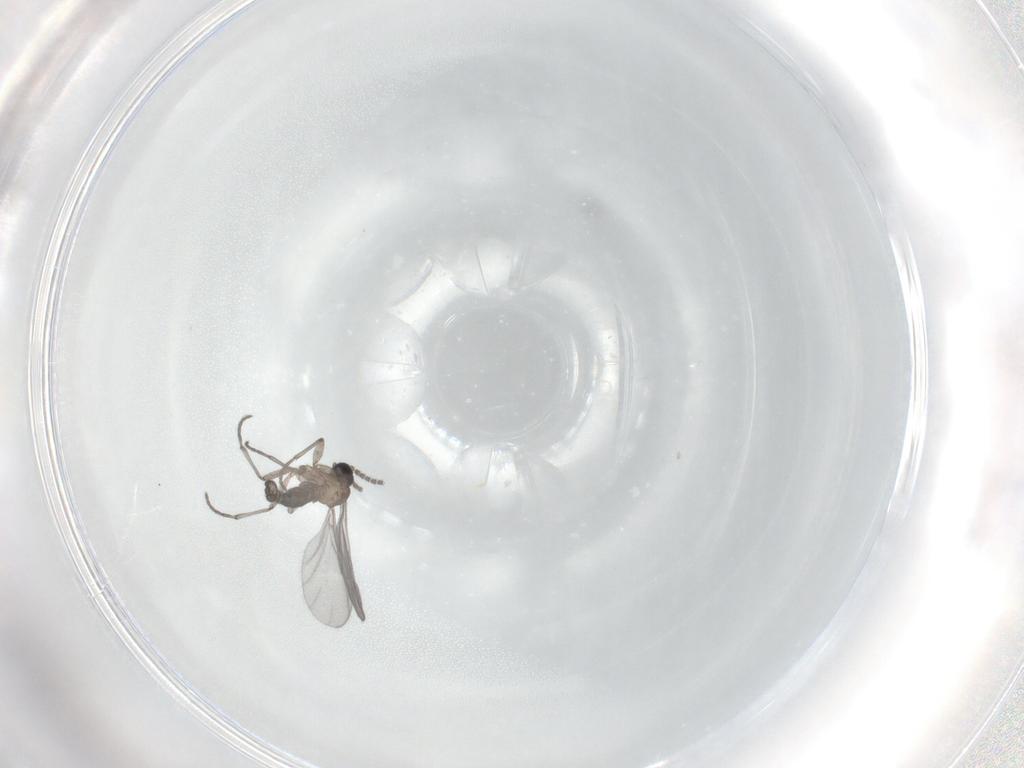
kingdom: Animalia
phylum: Arthropoda
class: Insecta
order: Diptera
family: Sciaridae
